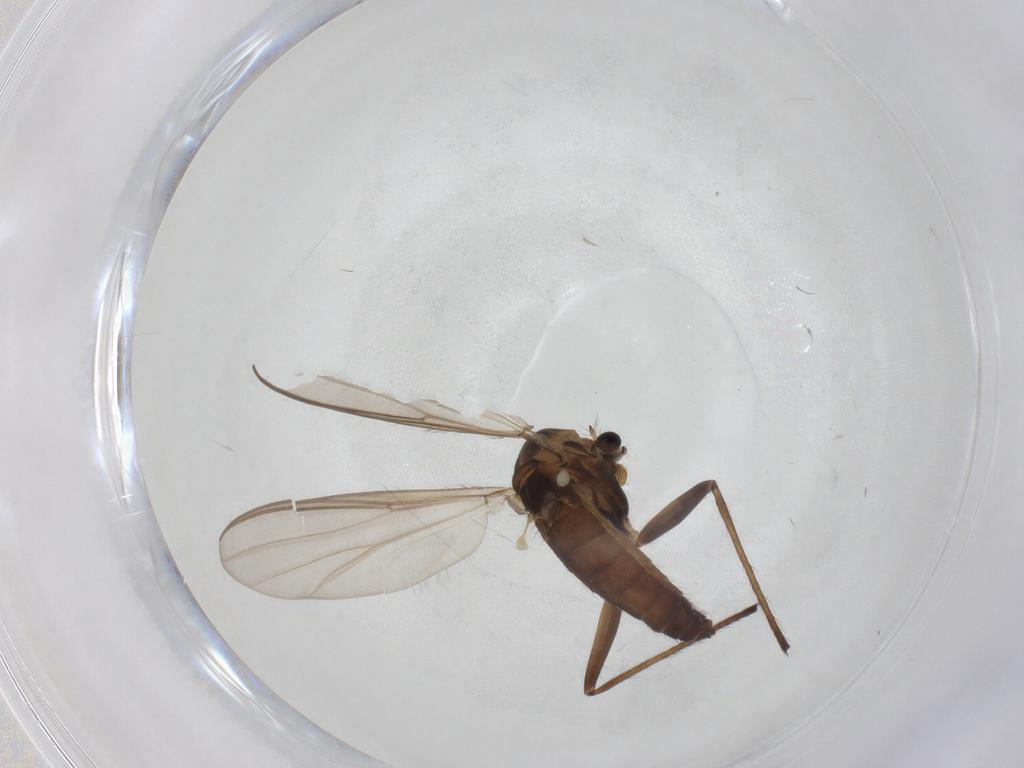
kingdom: Animalia
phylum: Arthropoda
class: Insecta
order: Diptera
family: Chironomidae
